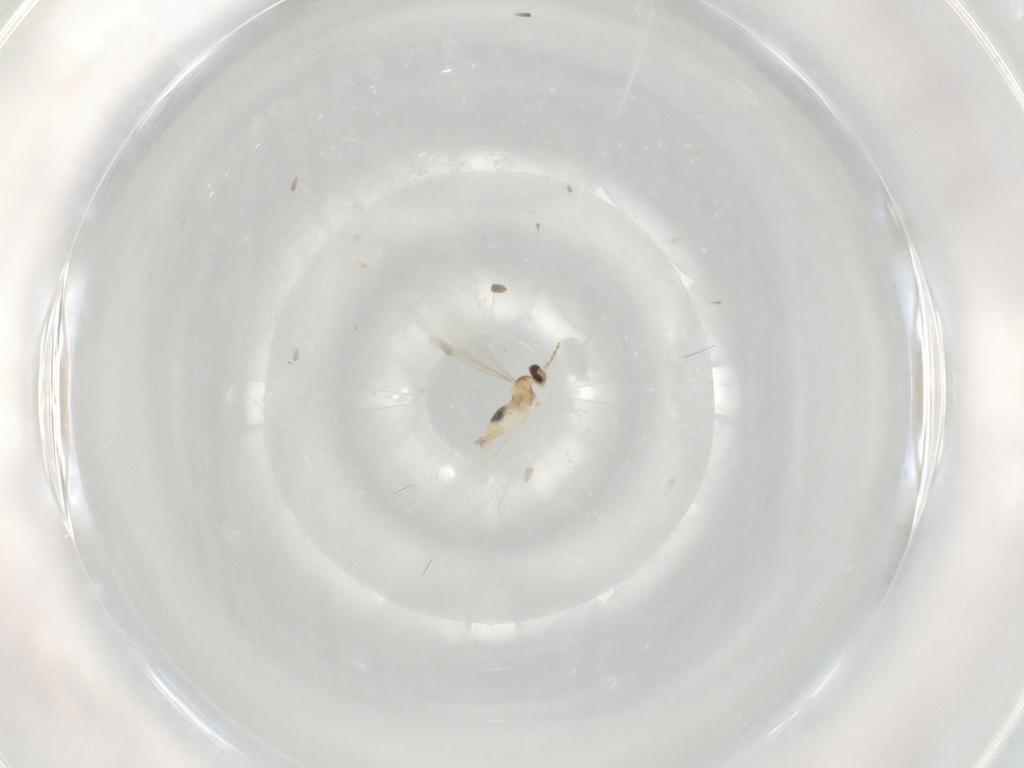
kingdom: Animalia
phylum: Arthropoda
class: Insecta
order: Diptera
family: Cecidomyiidae
